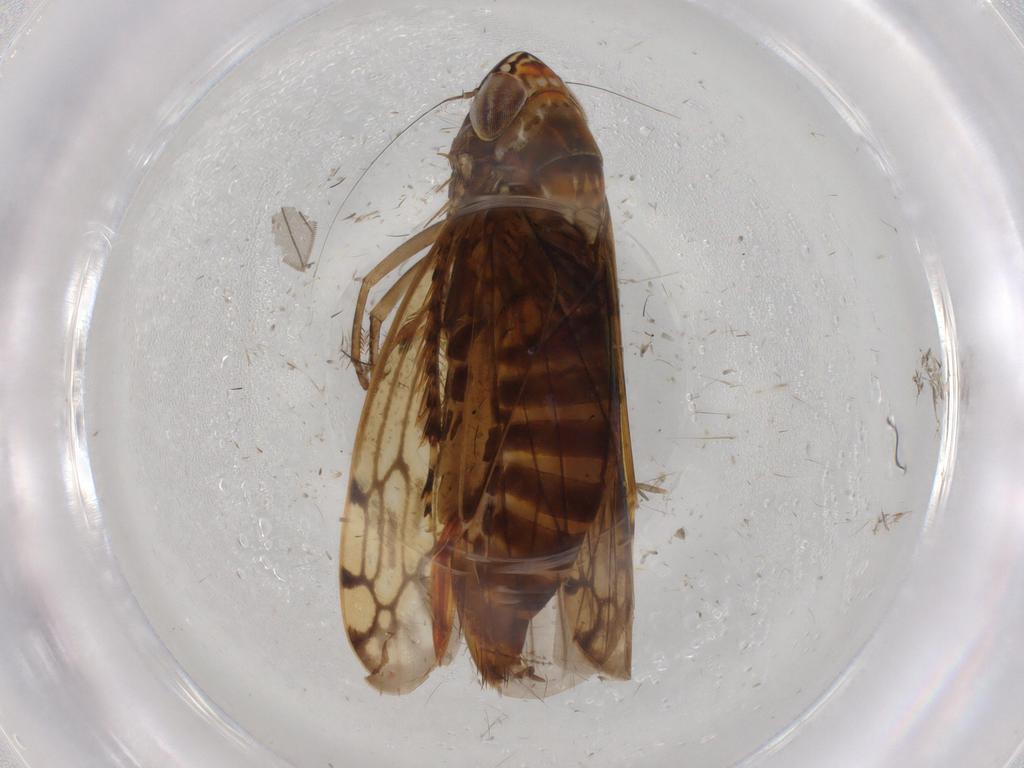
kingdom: Animalia
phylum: Arthropoda
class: Insecta
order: Hemiptera
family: Cicadellidae
